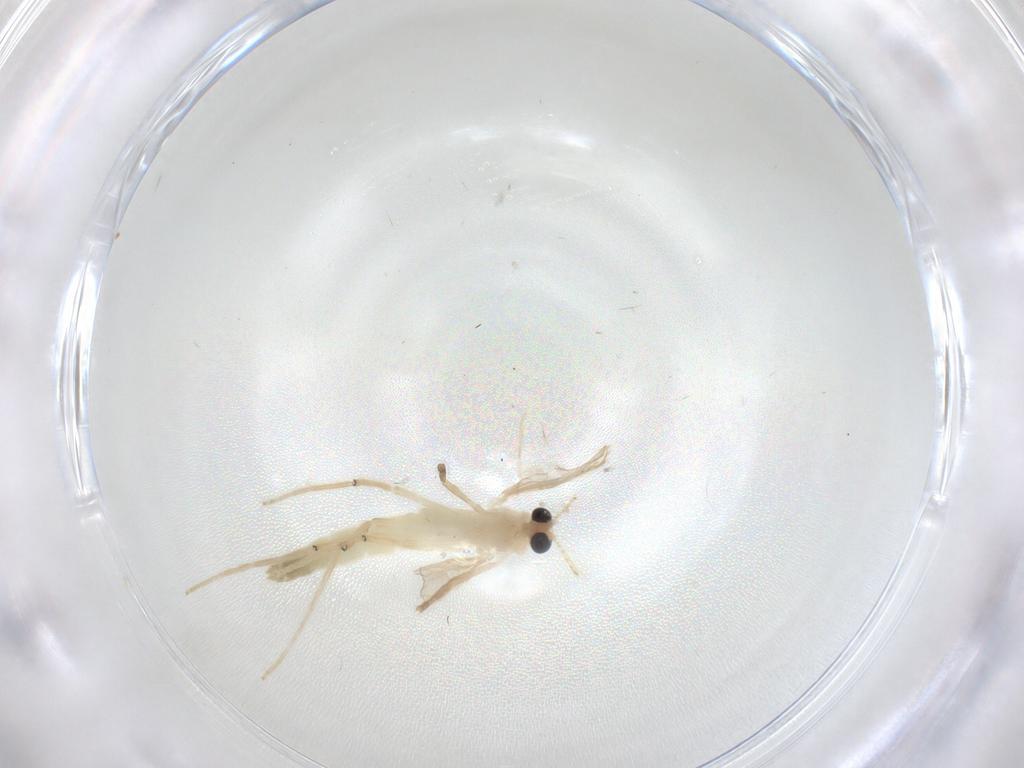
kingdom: Animalia
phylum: Arthropoda
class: Insecta
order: Diptera
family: Chironomidae
